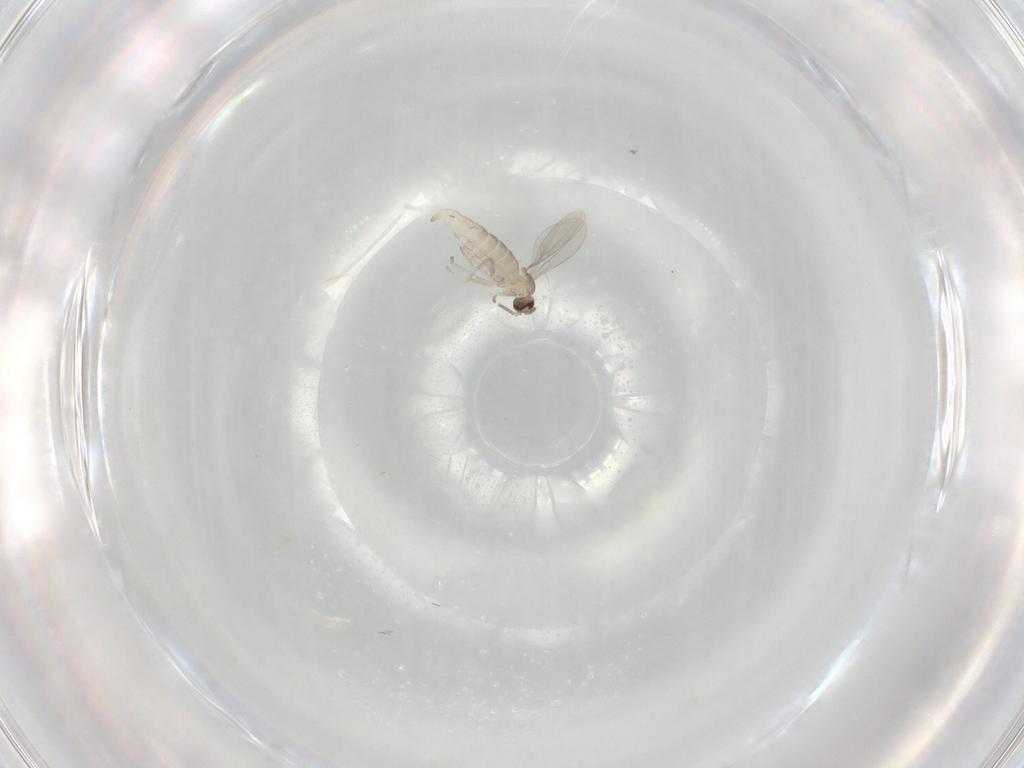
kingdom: Animalia
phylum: Arthropoda
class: Insecta
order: Diptera
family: Cecidomyiidae
